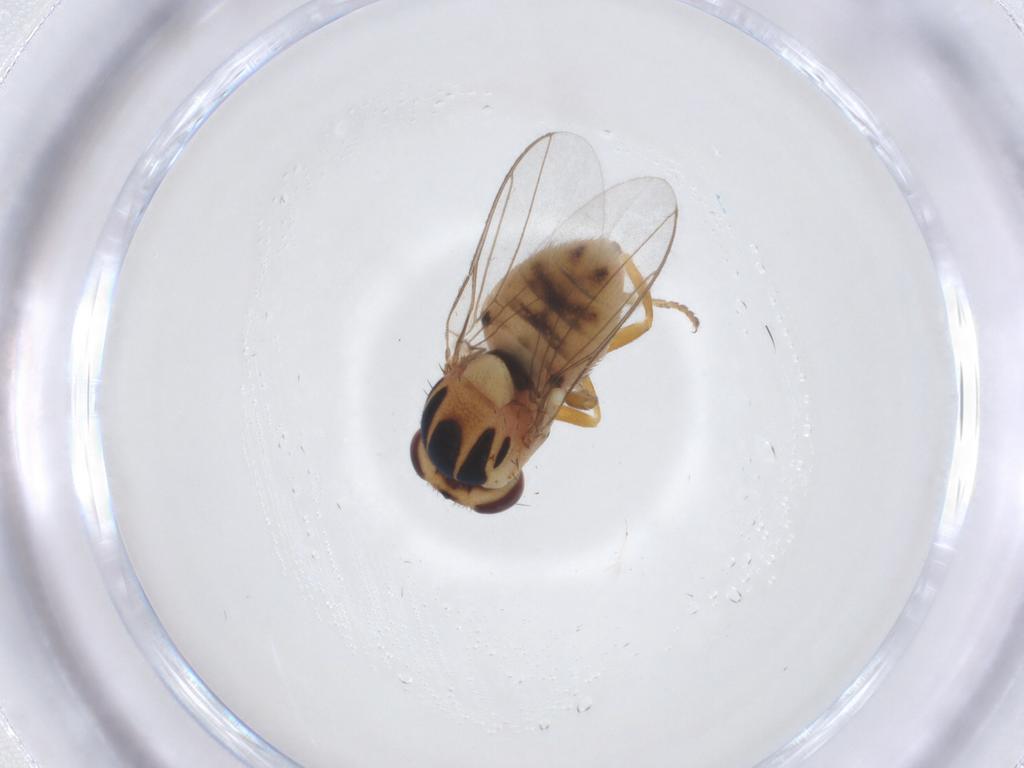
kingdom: Animalia
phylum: Arthropoda
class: Insecta
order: Diptera
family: Chloropidae
